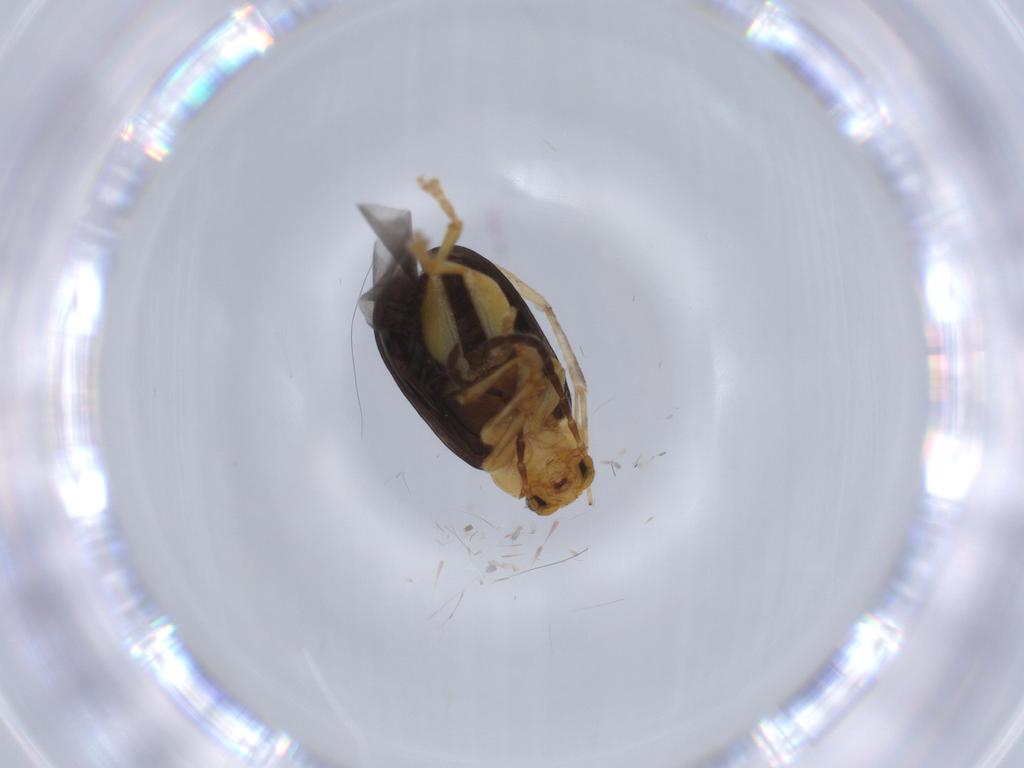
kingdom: Animalia
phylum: Arthropoda
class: Insecta
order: Coleoptera
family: Chrysomelidae
